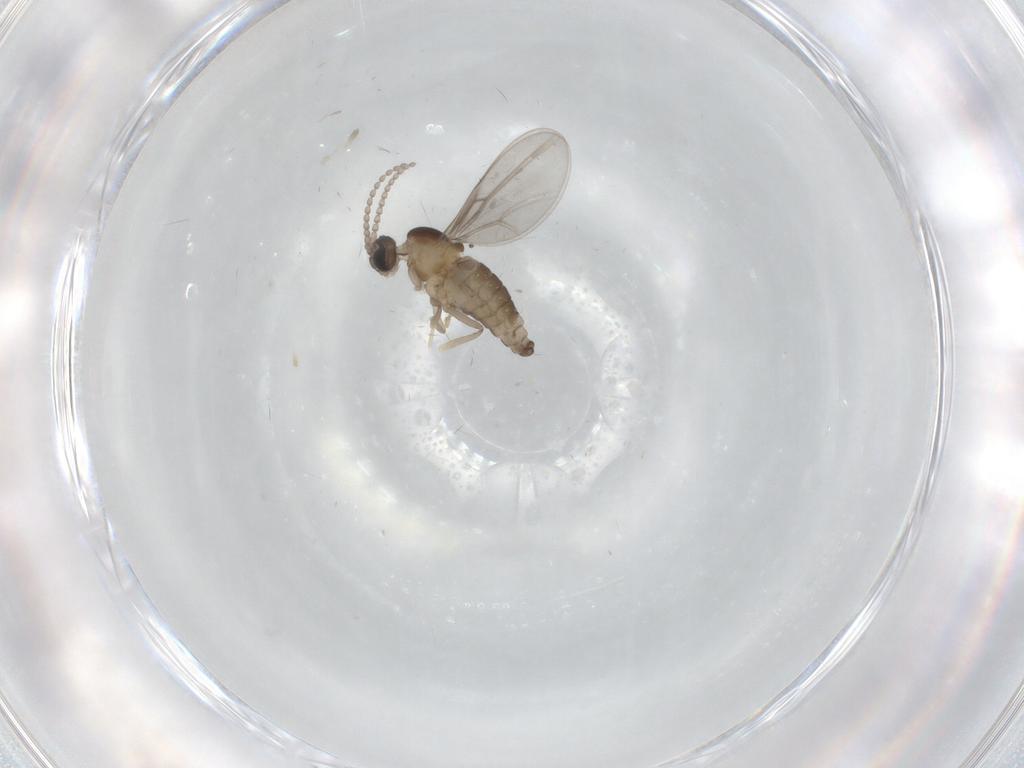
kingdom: Animalia
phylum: Arthropoda
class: Insecta
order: Diptera
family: Cecidomyiidae
